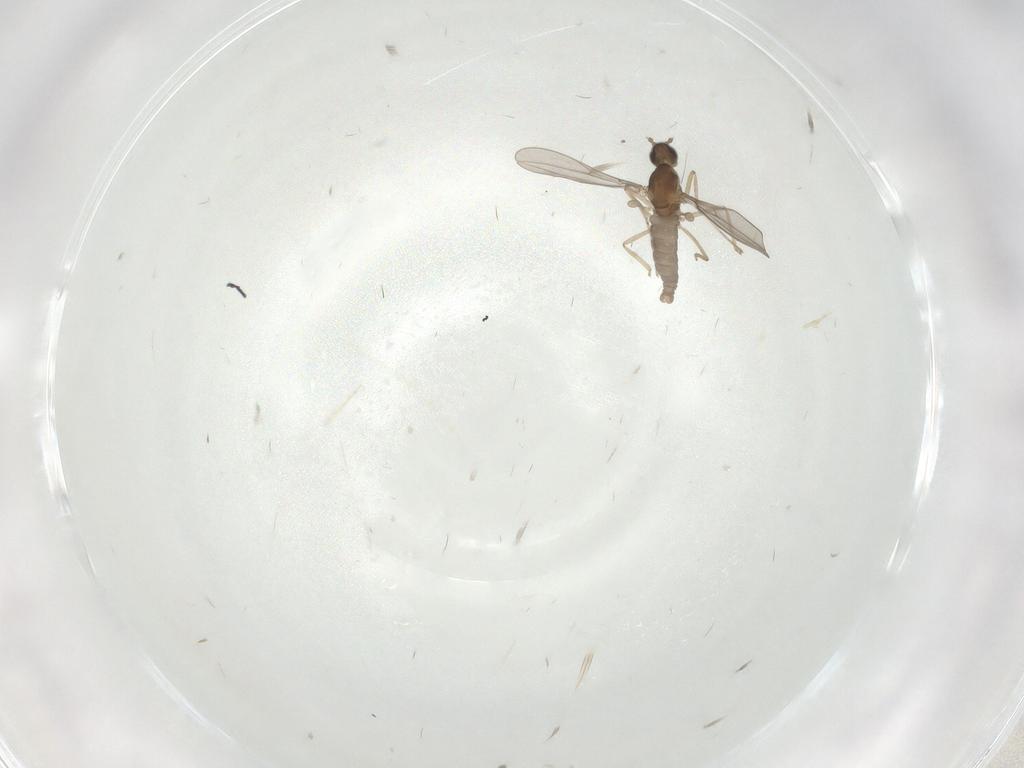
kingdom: Animalia
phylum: Arthropoda
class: Insecta
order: Diptera
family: Cecidomyiidae
